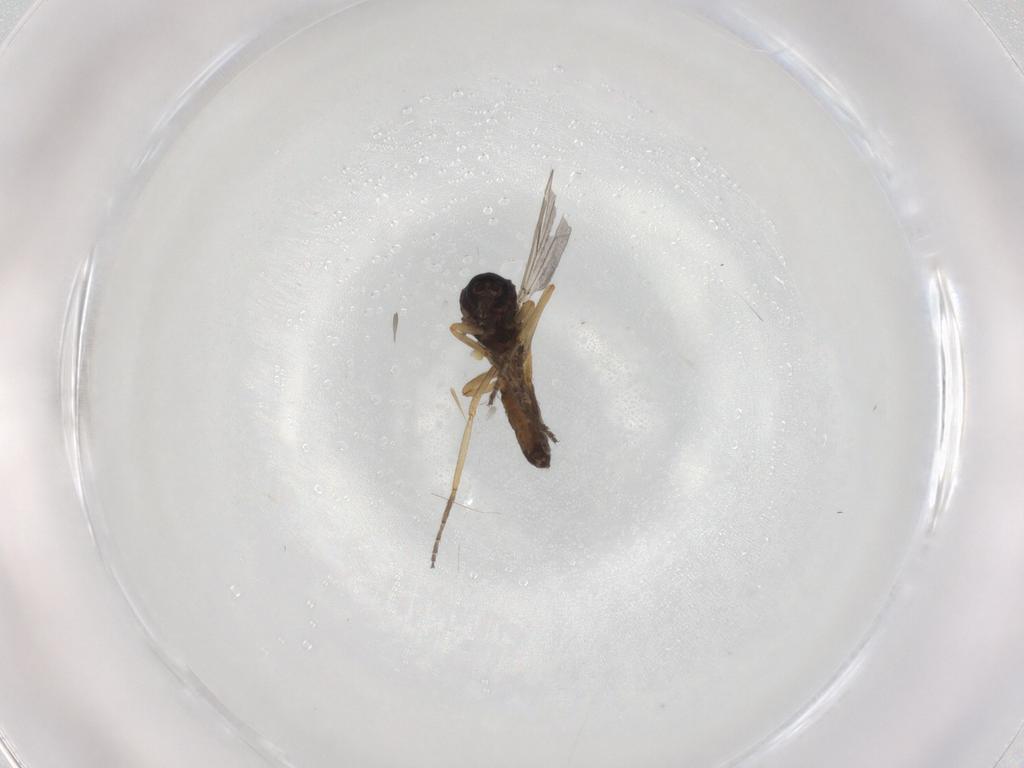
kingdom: Animalia
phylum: Arthropoda
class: Insecta
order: Diptera
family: Ceratopogonidae
